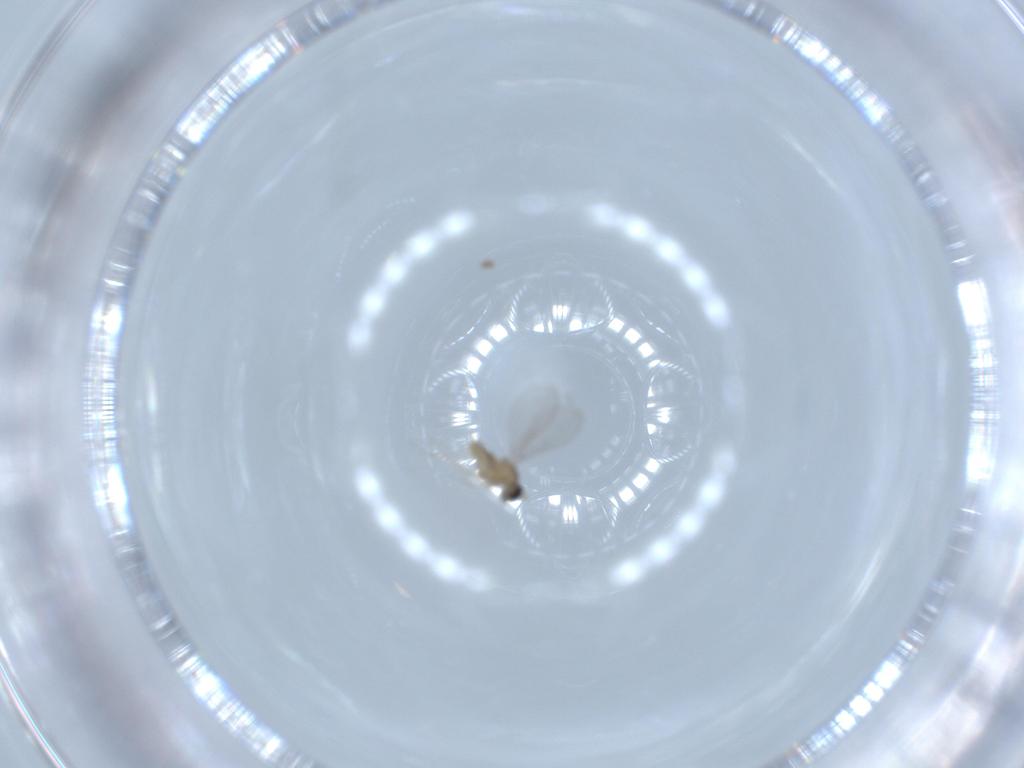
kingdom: Animalia
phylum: Arthropoda
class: Insecta
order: Diptera
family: Cecidomyiidae
